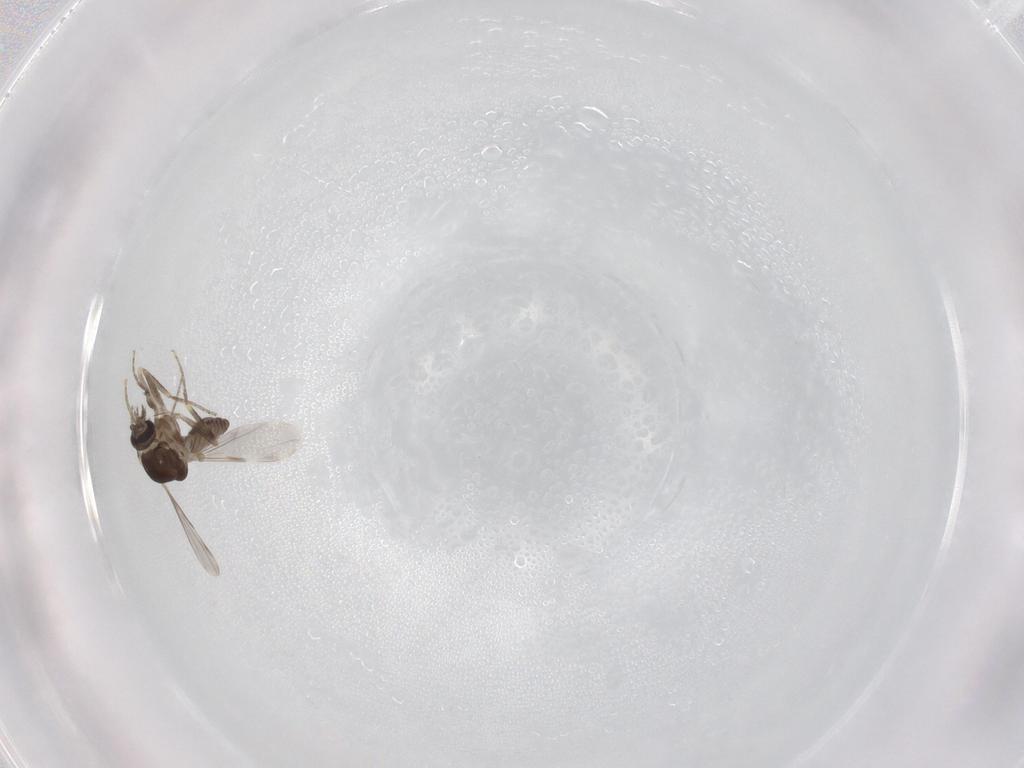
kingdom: Animalia
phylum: Arthropoda
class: Insecta
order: Diptera
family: Ceratopogonidae
